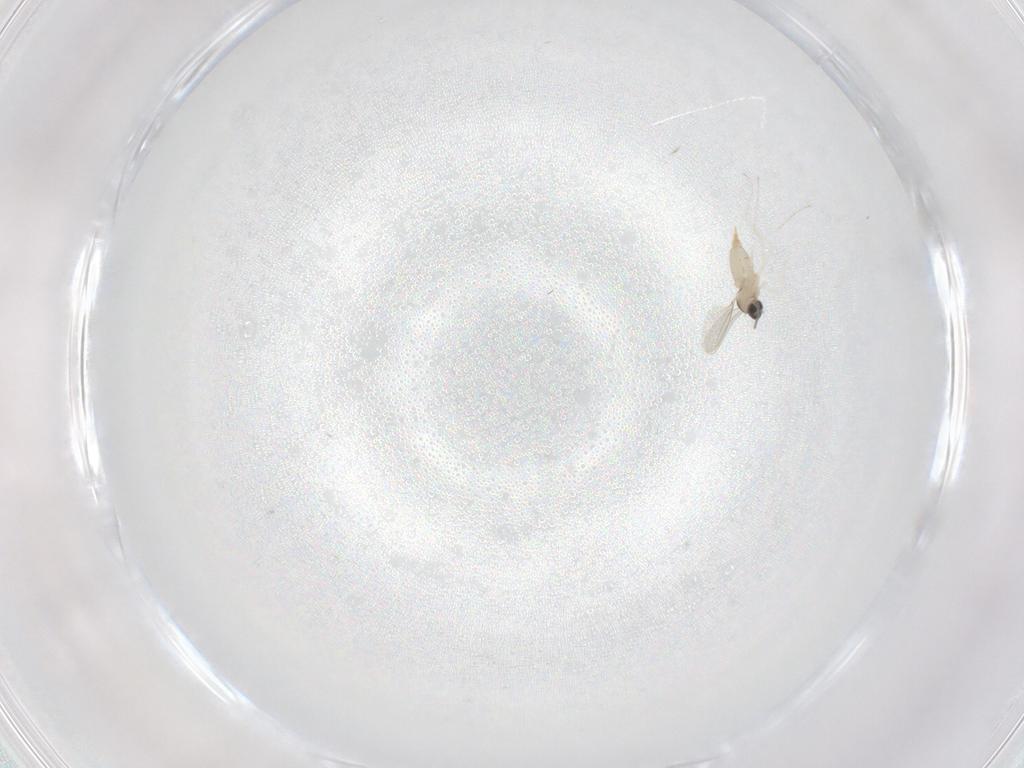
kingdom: Animalia
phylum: Arthropoda
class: Insecta
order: Diptera
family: Cecidomyiidae
